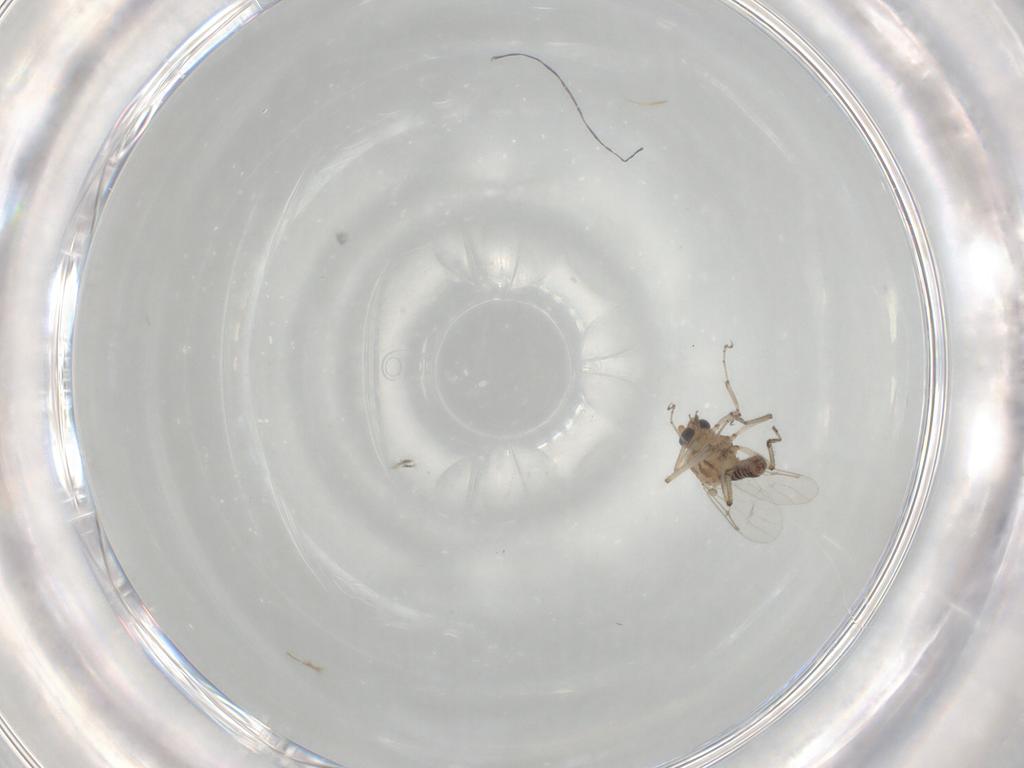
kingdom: Animalia
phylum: Arthropoda
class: Insecta
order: Diptera
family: Ceratopogonidae
